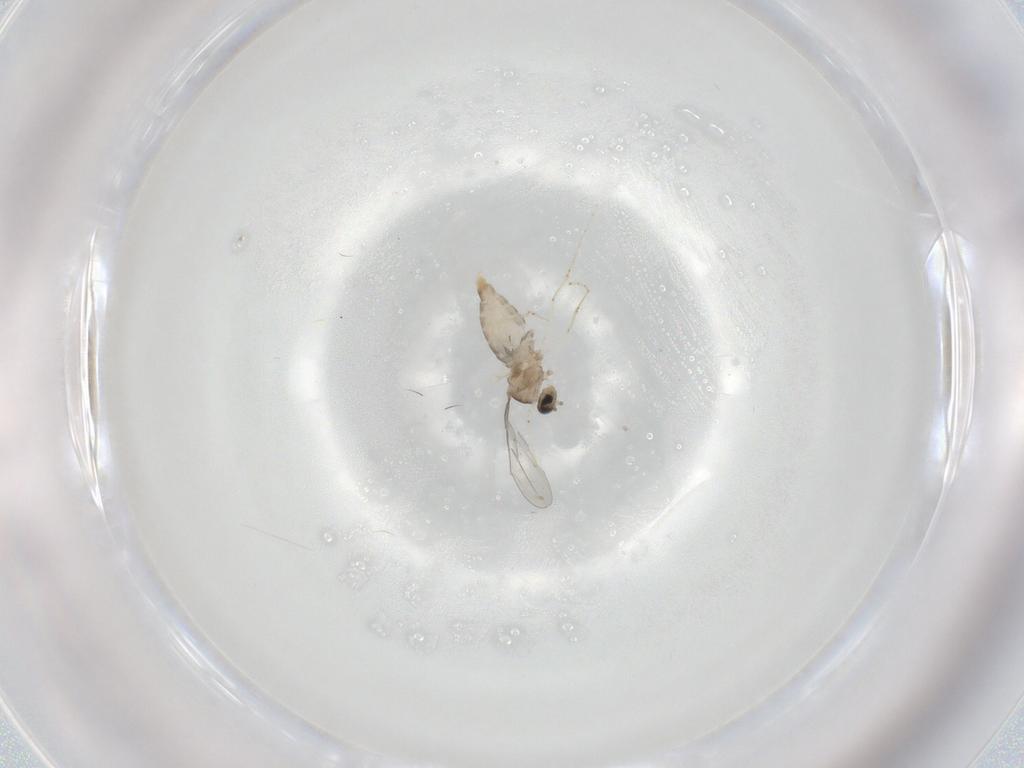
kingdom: Animalia
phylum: Arthropoda
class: Insecta
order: Diptera
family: Cecidomyiidae
